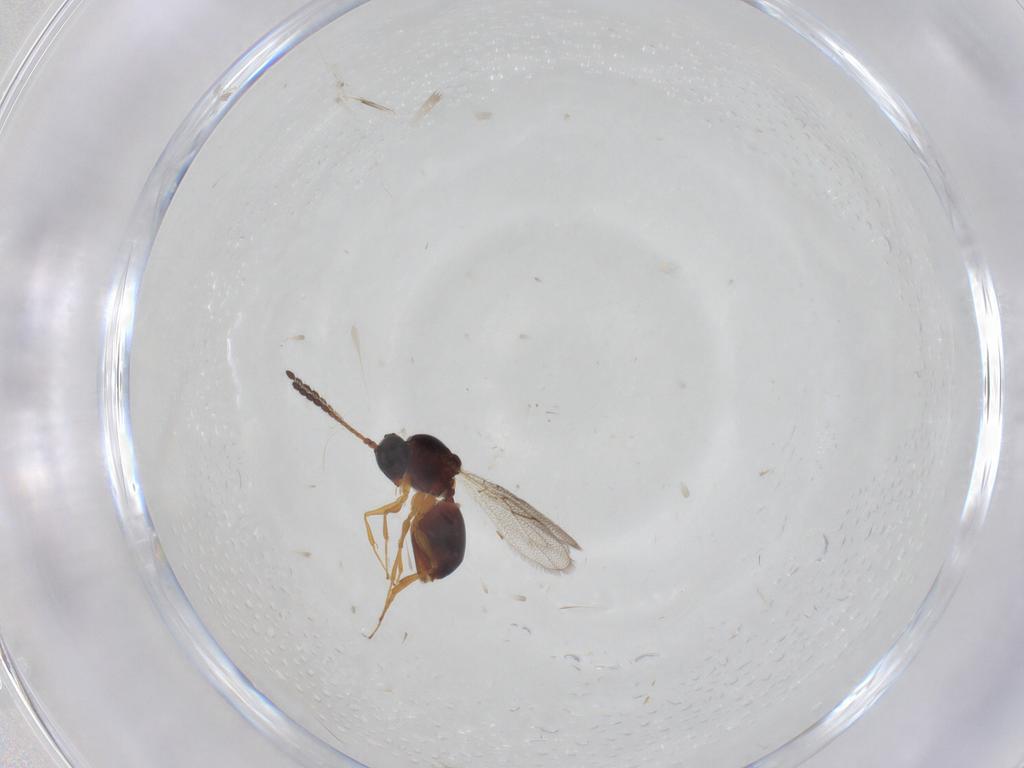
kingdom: Animalia
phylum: Arthropoda
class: Insecta
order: Hymenoptera
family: Figitidae
